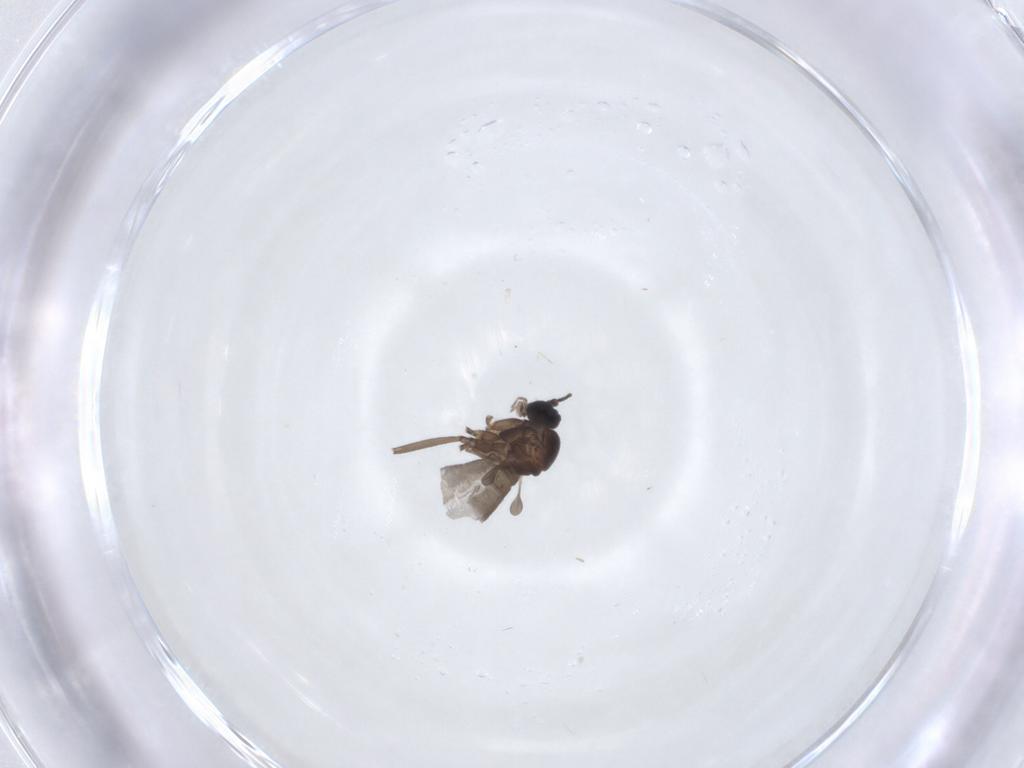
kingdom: Animalia
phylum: Arthropoda
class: Insecta
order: Diptera
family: Sciaridae
